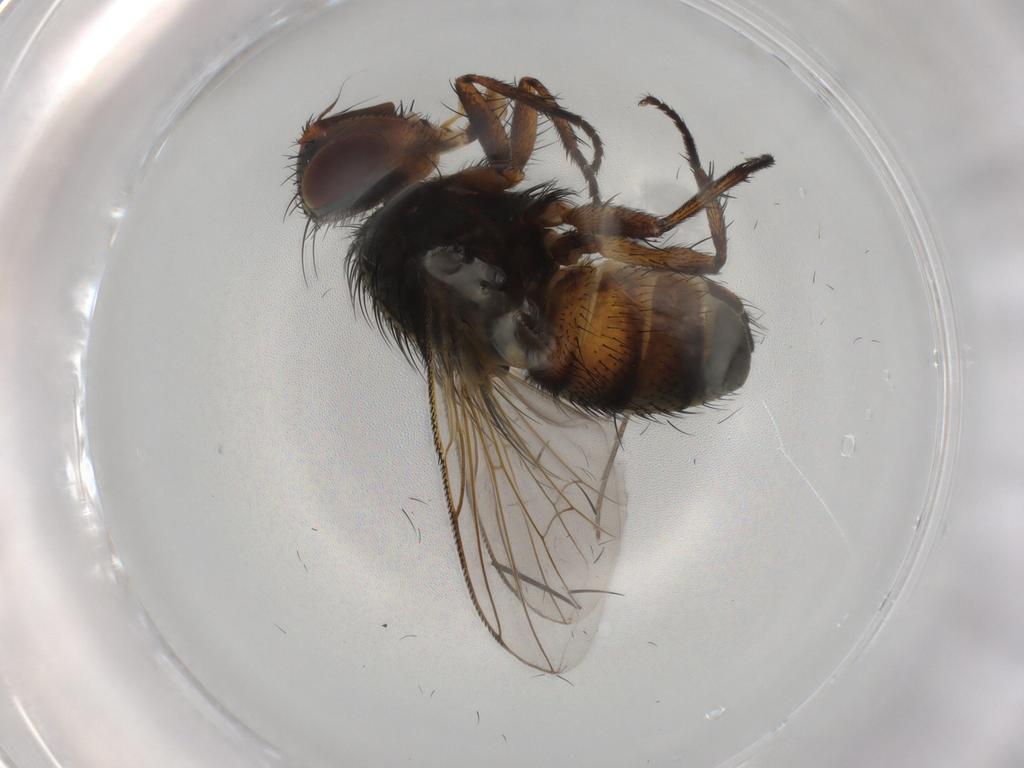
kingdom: Animalia
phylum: Arthropoda
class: Insecta
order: Diptera
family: Tachinidae
